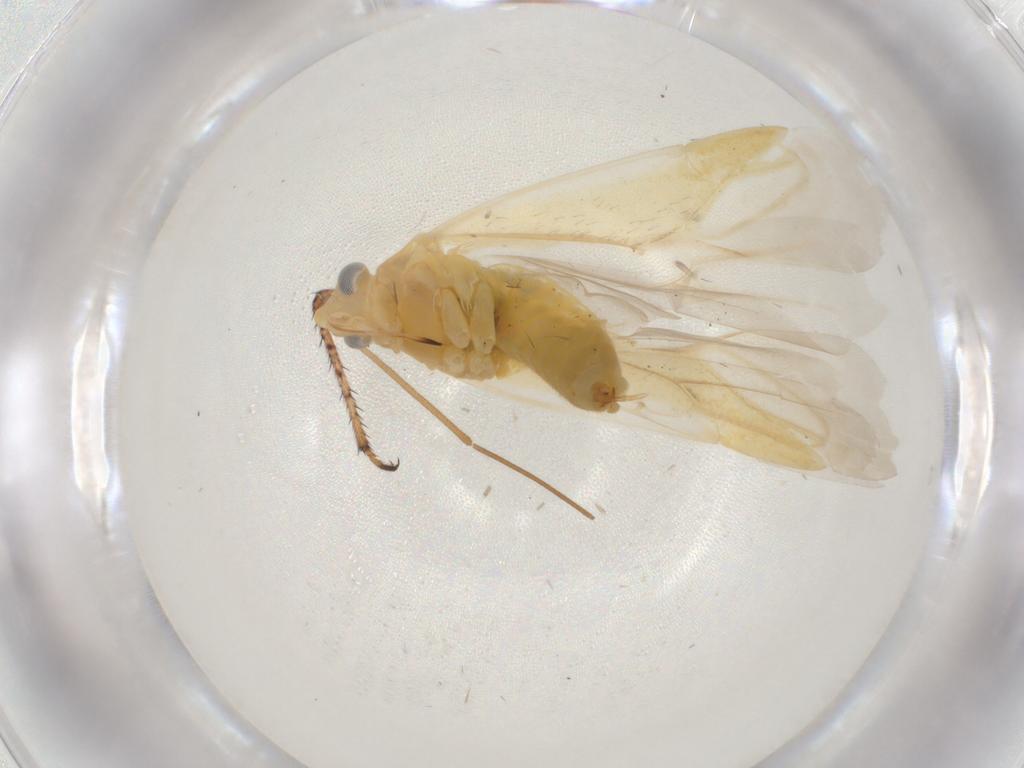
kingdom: Animalia
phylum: Arthropoda
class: Insecta
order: Hemiptera
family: Miridae
